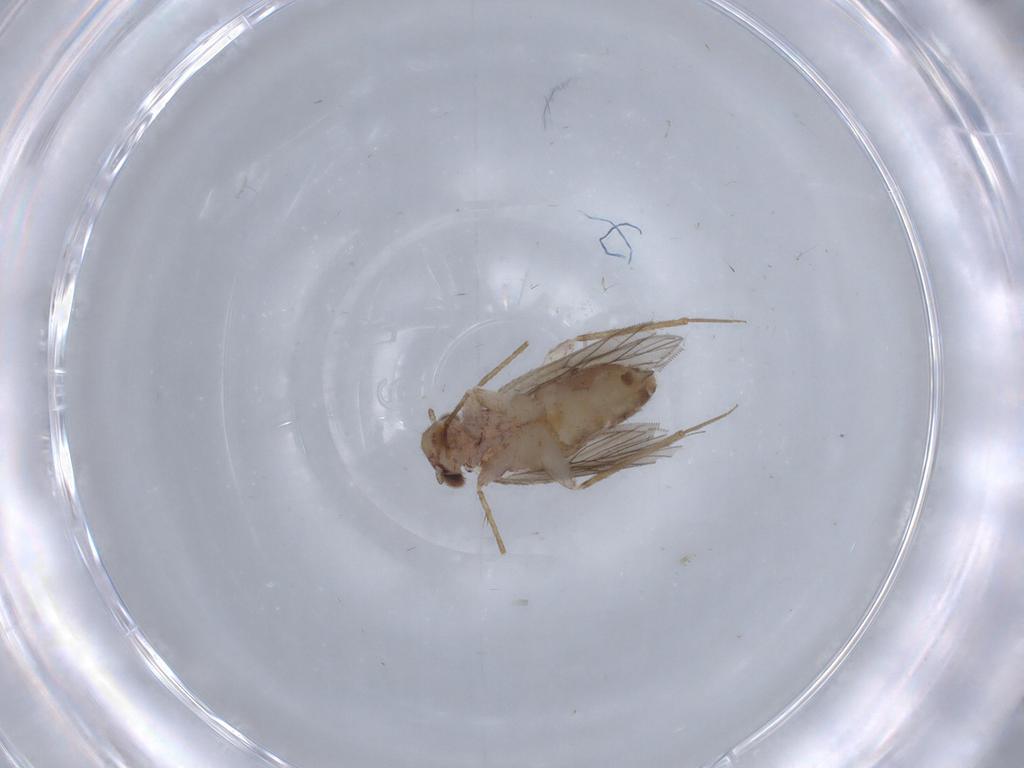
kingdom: Animalia
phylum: Arthropoda
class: Insecta
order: Psocodea
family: Lepidopsocidae
